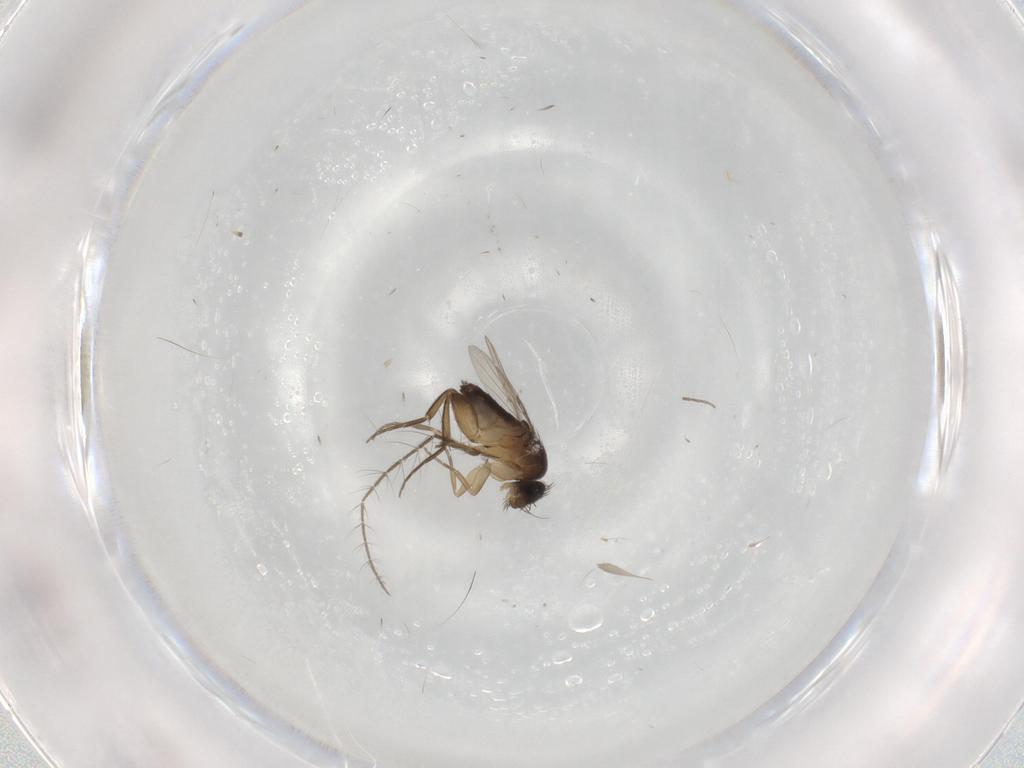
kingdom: Animalia
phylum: Arthropoda
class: Insecta
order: Diptera
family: Phoridae
